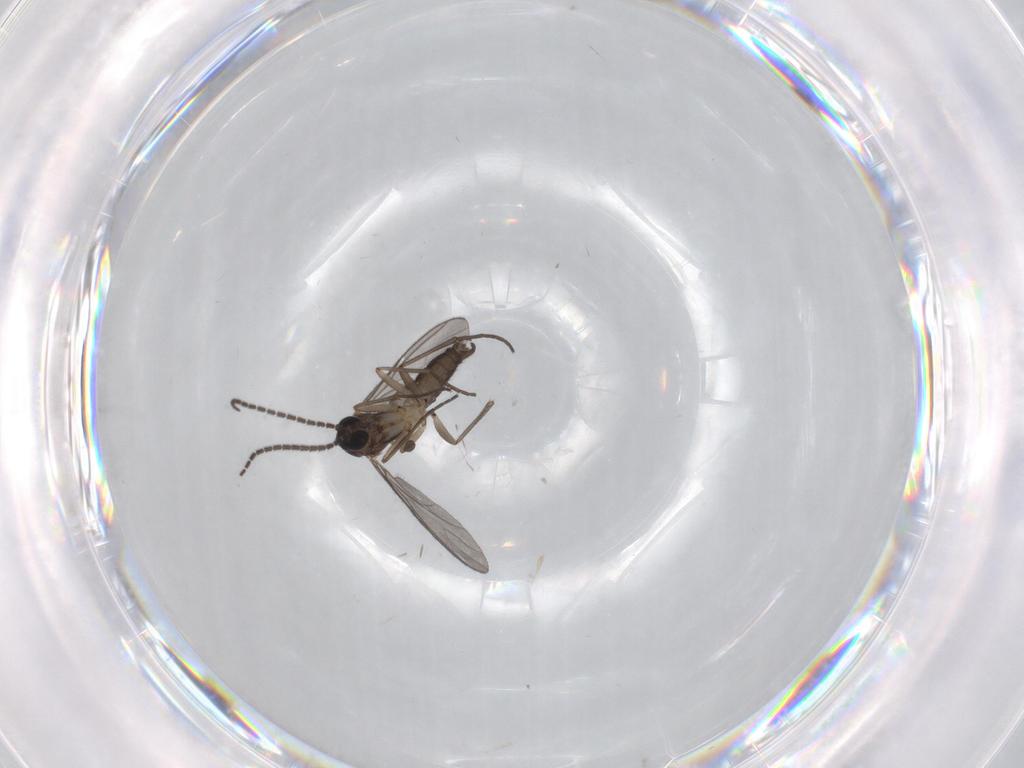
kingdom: Animalia
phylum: Arthropoda
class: Insecta
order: Diptera
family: Sciaridae
